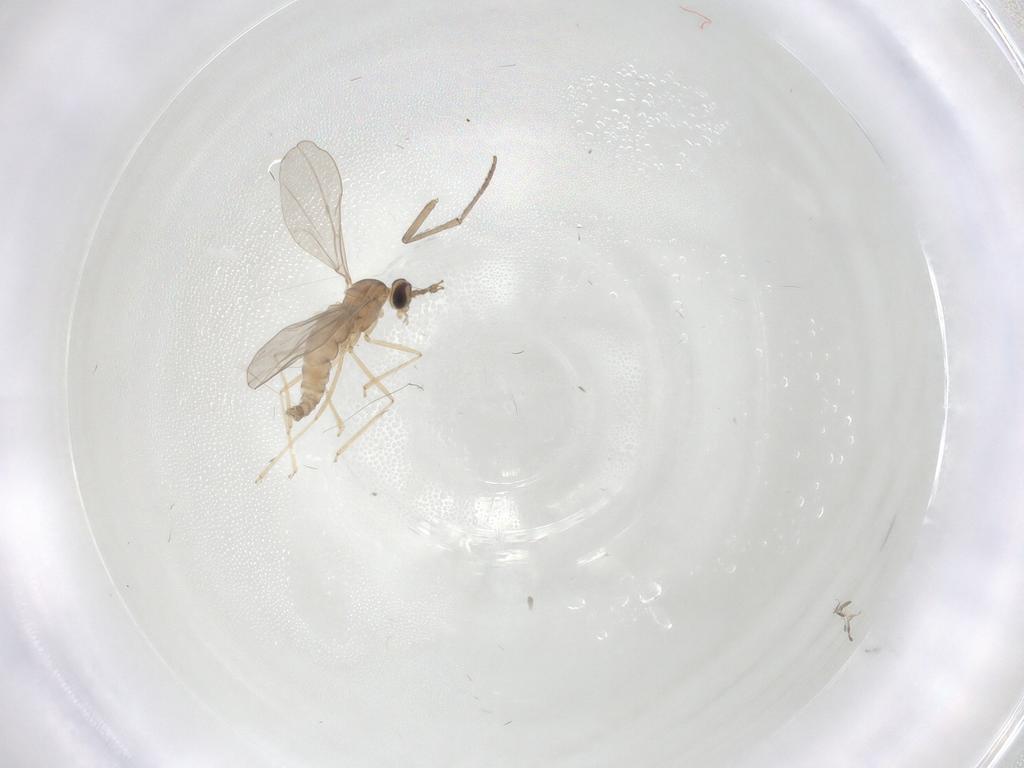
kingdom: Animalia
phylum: Arthropoda
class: Insecta
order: Diptera
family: Psychodidae
